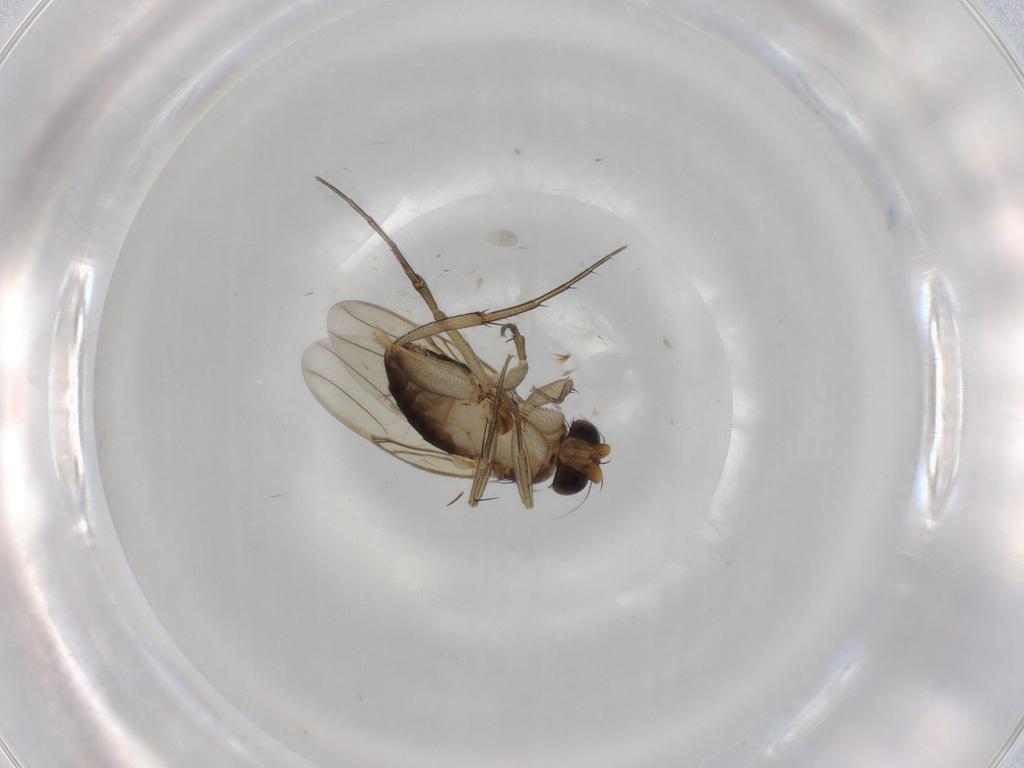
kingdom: Animalia
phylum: Arthropoda
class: Insecta
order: Diptera
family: Phoridae
